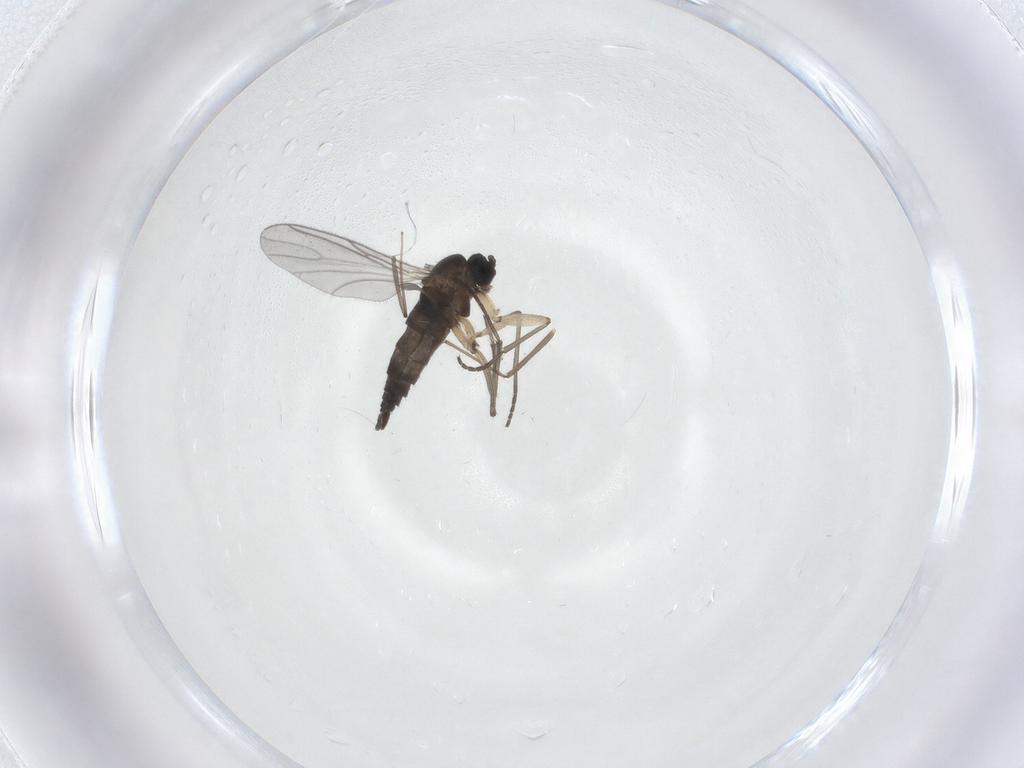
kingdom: Animalia
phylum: Arthropoda
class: Insecta
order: Diptera
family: Sciaridae
